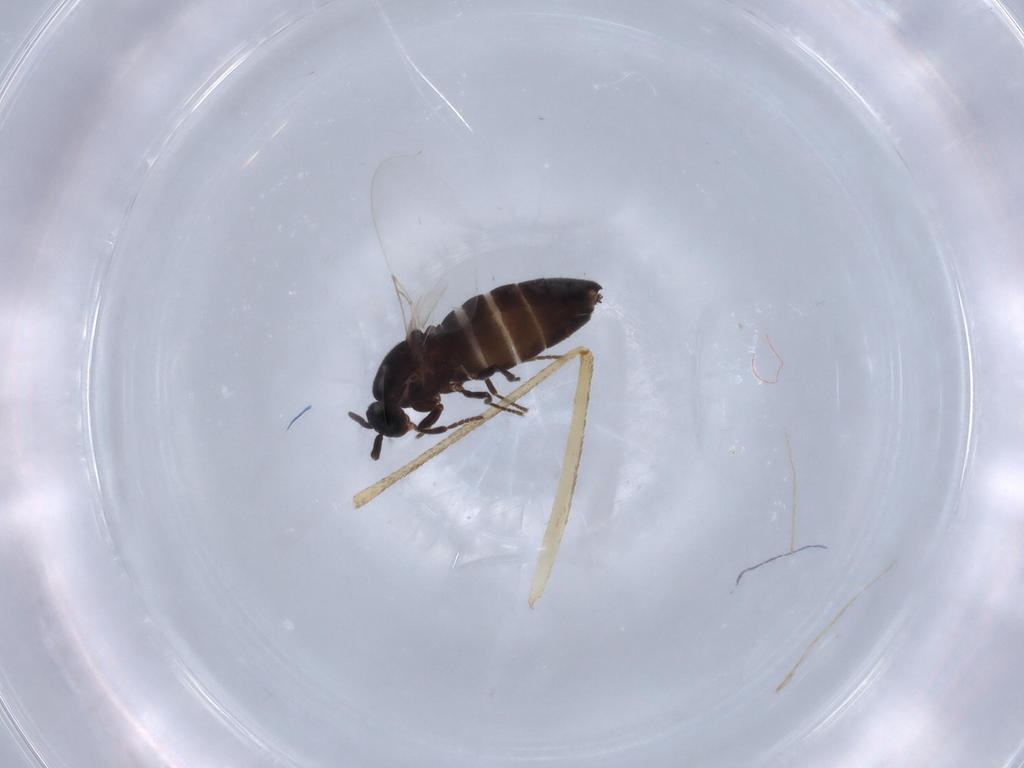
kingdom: Animalia
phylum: Arthropoda
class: Insecta
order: Diptera
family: Scatopsidae
